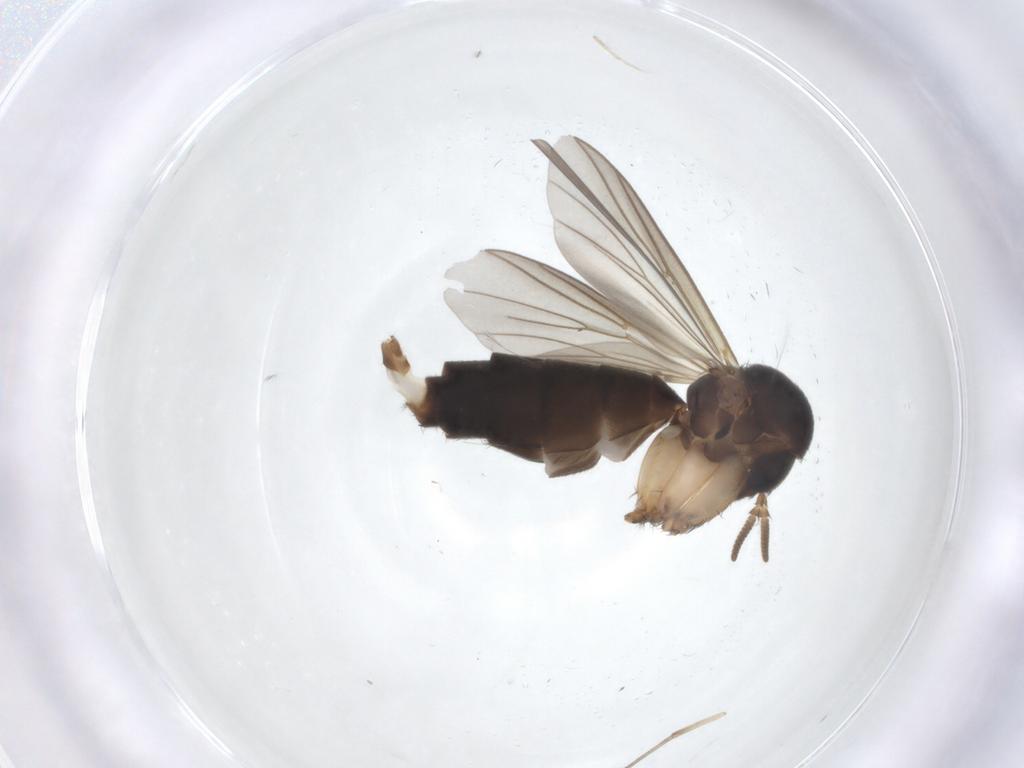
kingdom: Animalia
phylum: Arthropoda
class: Insecta
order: Diptera
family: Mycetophilidae
